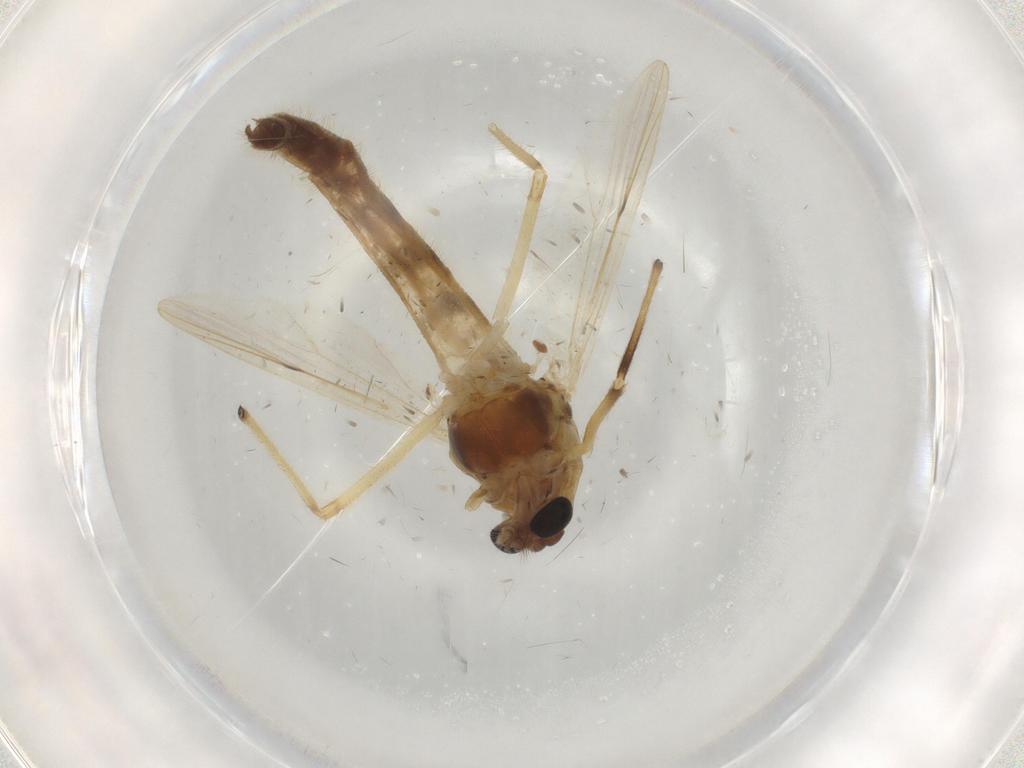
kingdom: Animalia
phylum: Arthropoda
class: Insecta
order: Diptera
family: Drosophilidae
